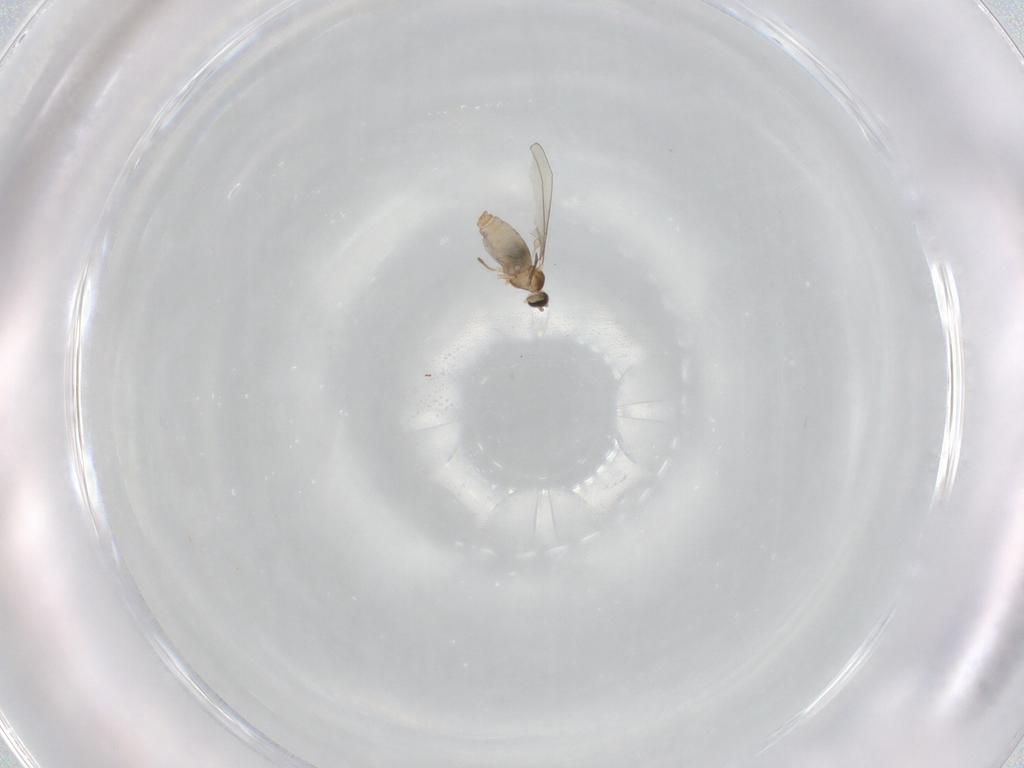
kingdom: Animalia
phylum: Arthropoda
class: Insecta
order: Diptera
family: Cecidomyiidae
